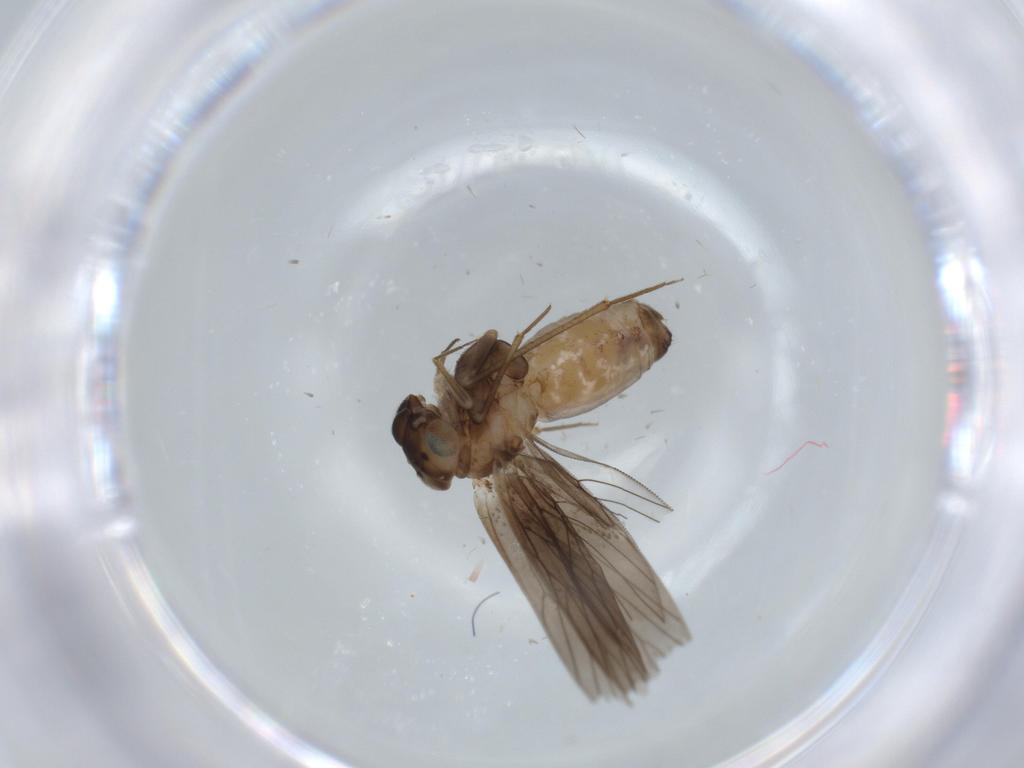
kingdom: Animalia
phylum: Arthropoda
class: Insecta
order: Psocodea
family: Lepidopsocidae
